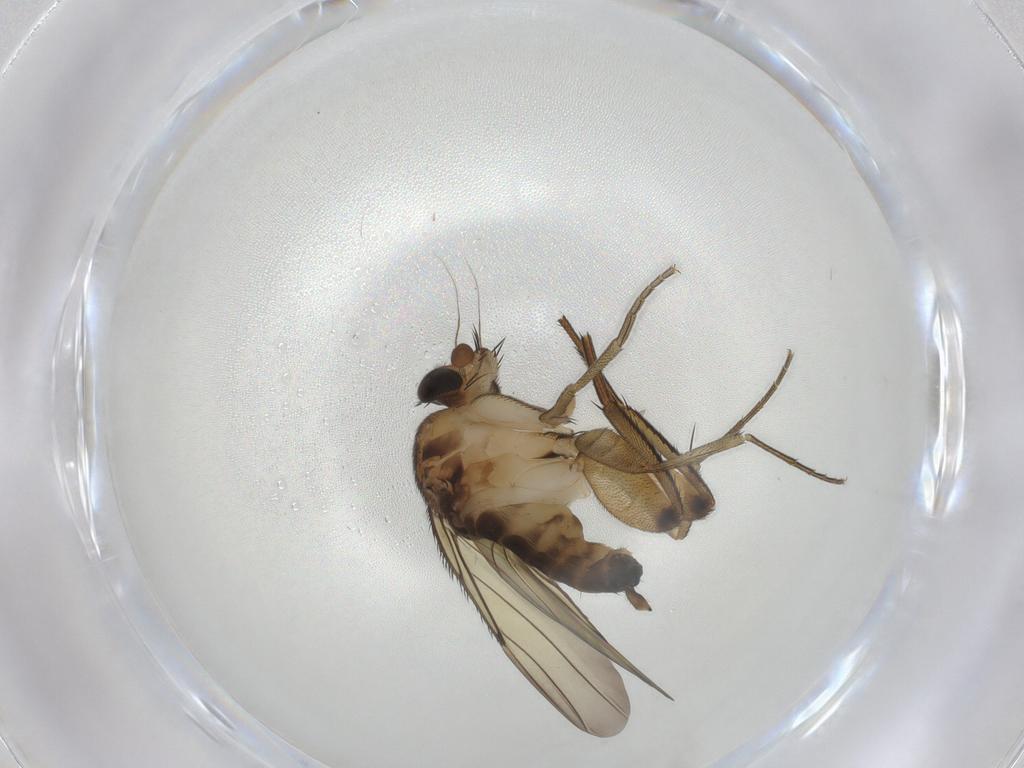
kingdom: Animalia
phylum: Arthropoda
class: Insecta
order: Diptera
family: Phoridae
